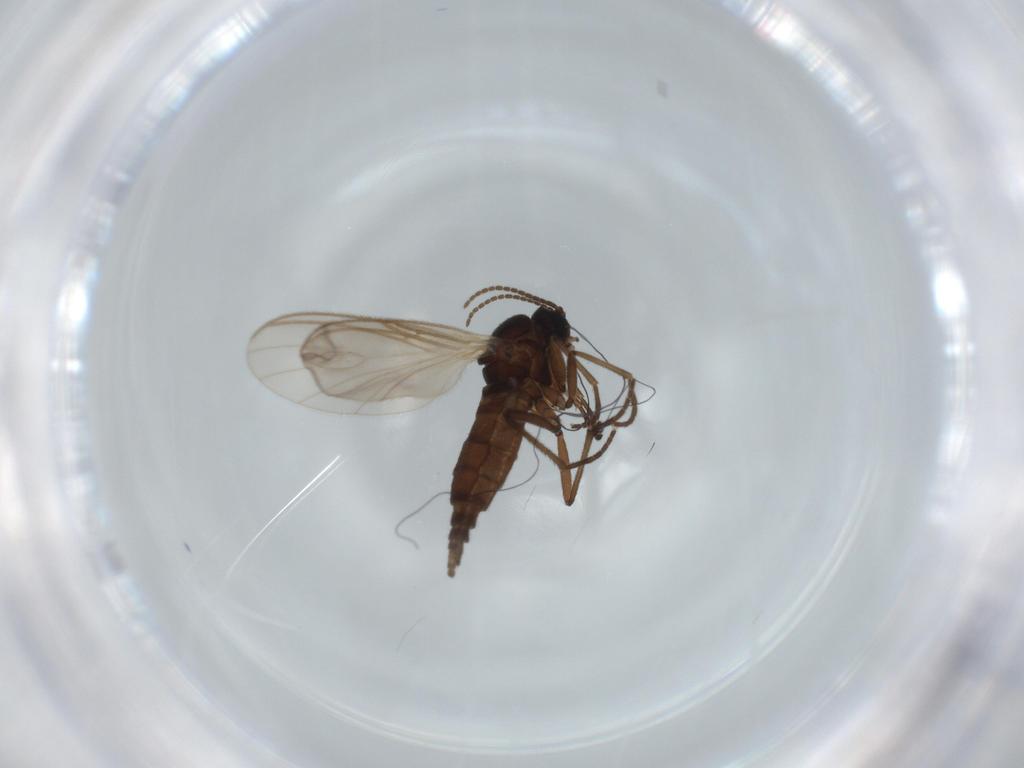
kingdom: Animalia
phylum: Arthropoda
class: Insecta
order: Diptera
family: Sciaridae
